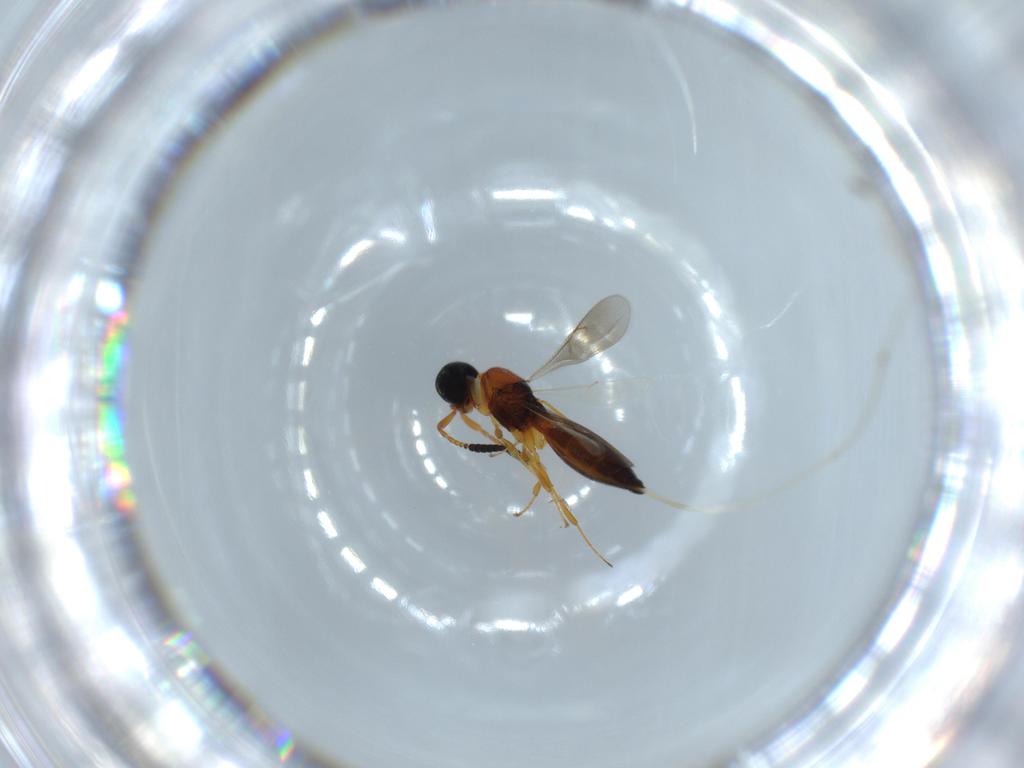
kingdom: Animalia
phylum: Arthropoda
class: Insecta
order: Hymenoptera
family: Scelionidae
